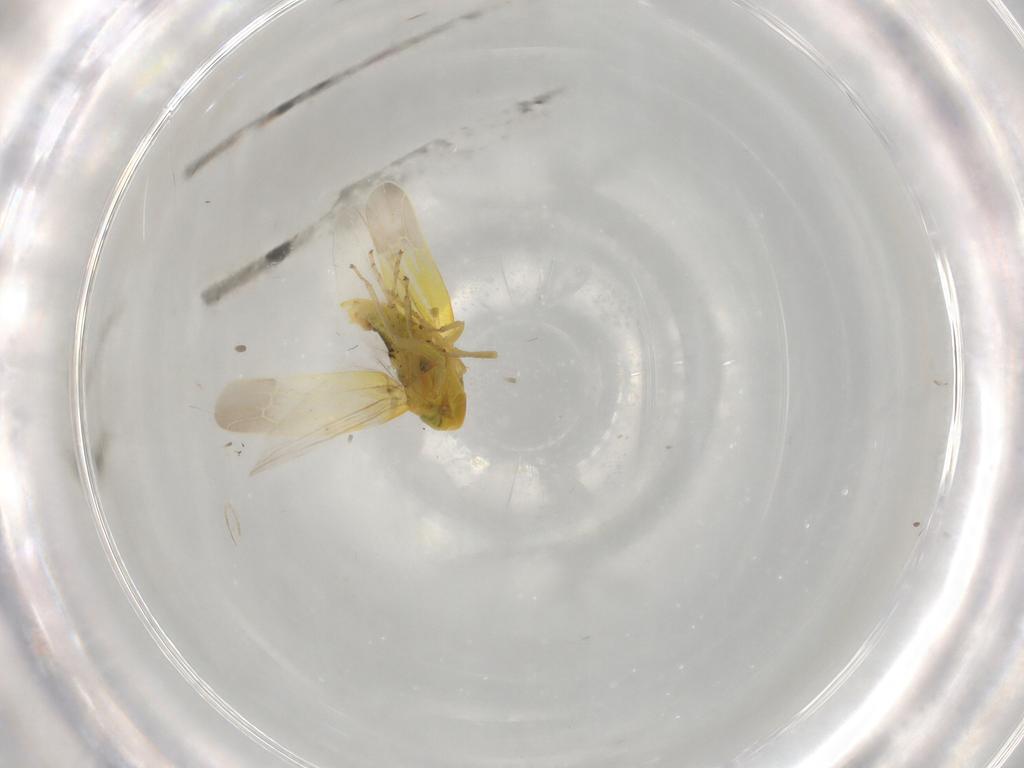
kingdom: Animalia
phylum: Arthropoda
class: Insecta
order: Hemiptera
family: Cicadellidae
